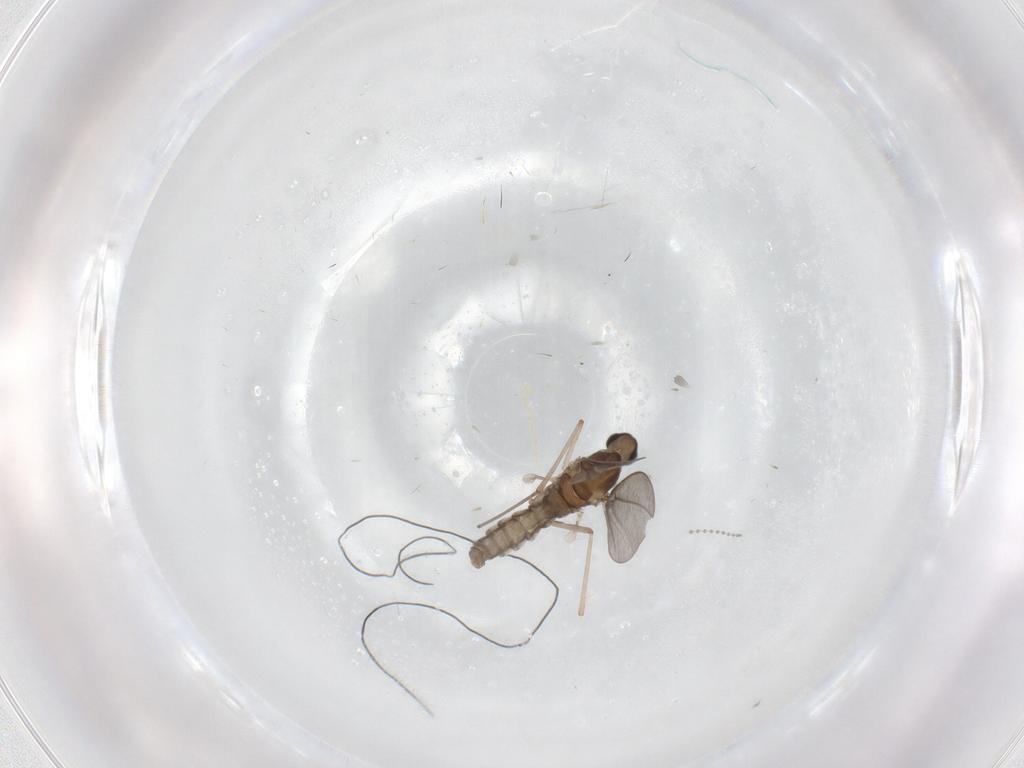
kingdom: Animalia
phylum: Arthropoda
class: Insecta
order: Diptera
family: Cecidomyiidae
